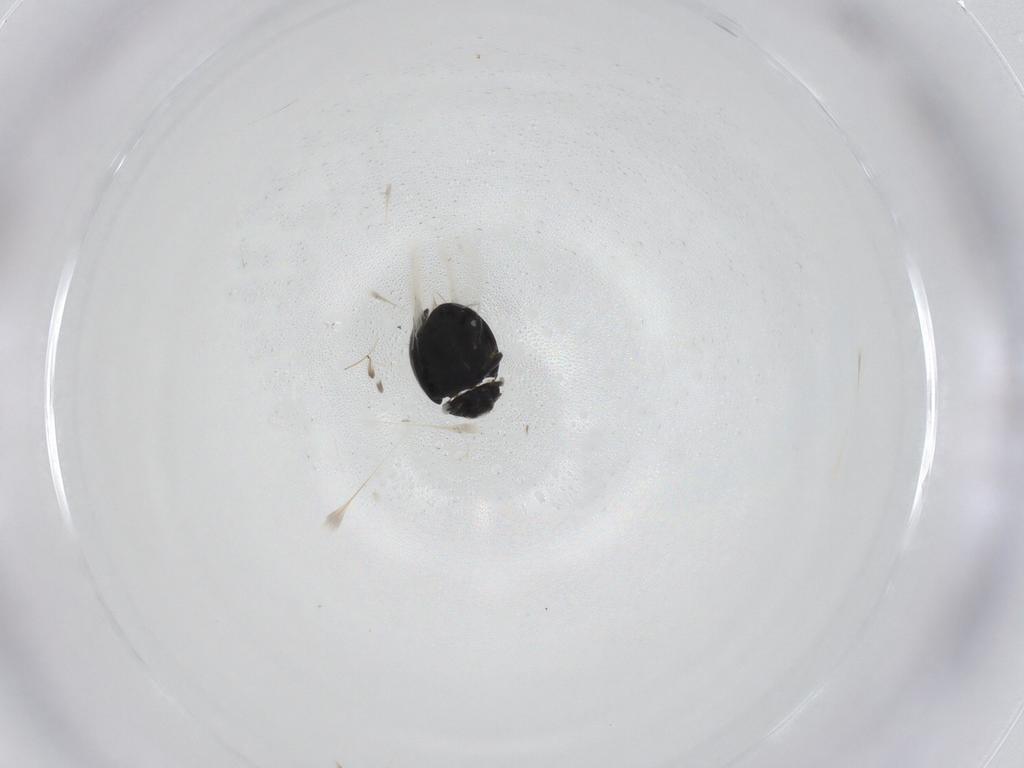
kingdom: Animalia
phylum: Arthropoda
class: Insecta
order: Coleoptera
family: Coccinellidae
